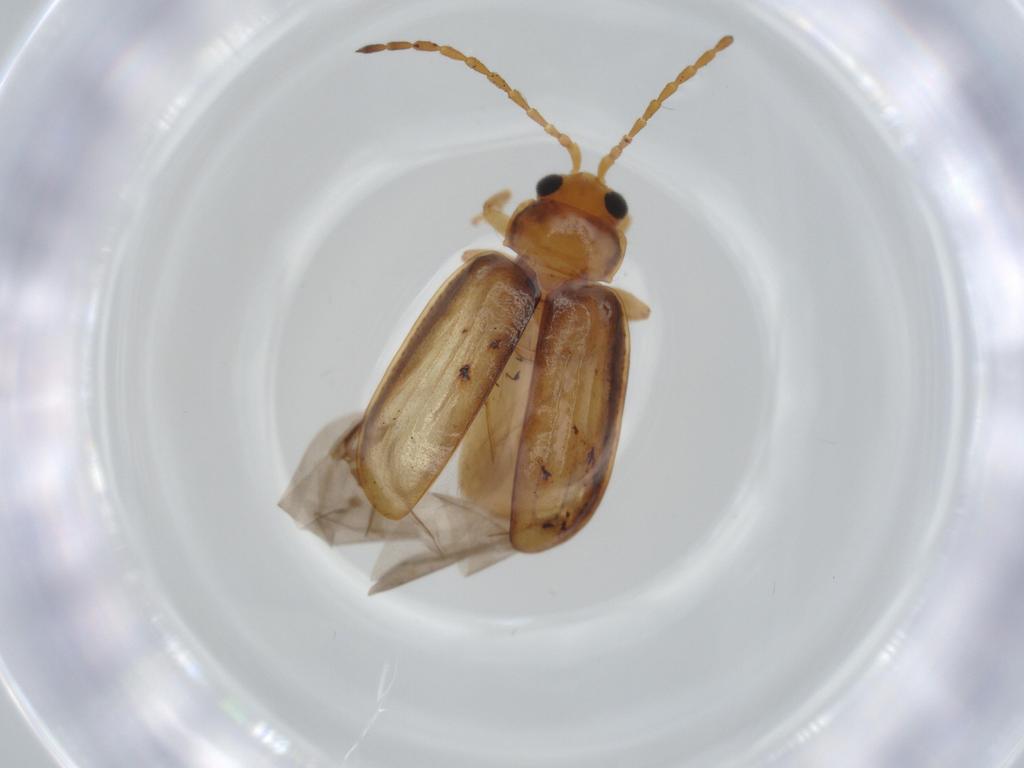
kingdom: Animalia
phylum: Arthropoda
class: Insecta
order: Coleoptera
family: Chrysomelidae
